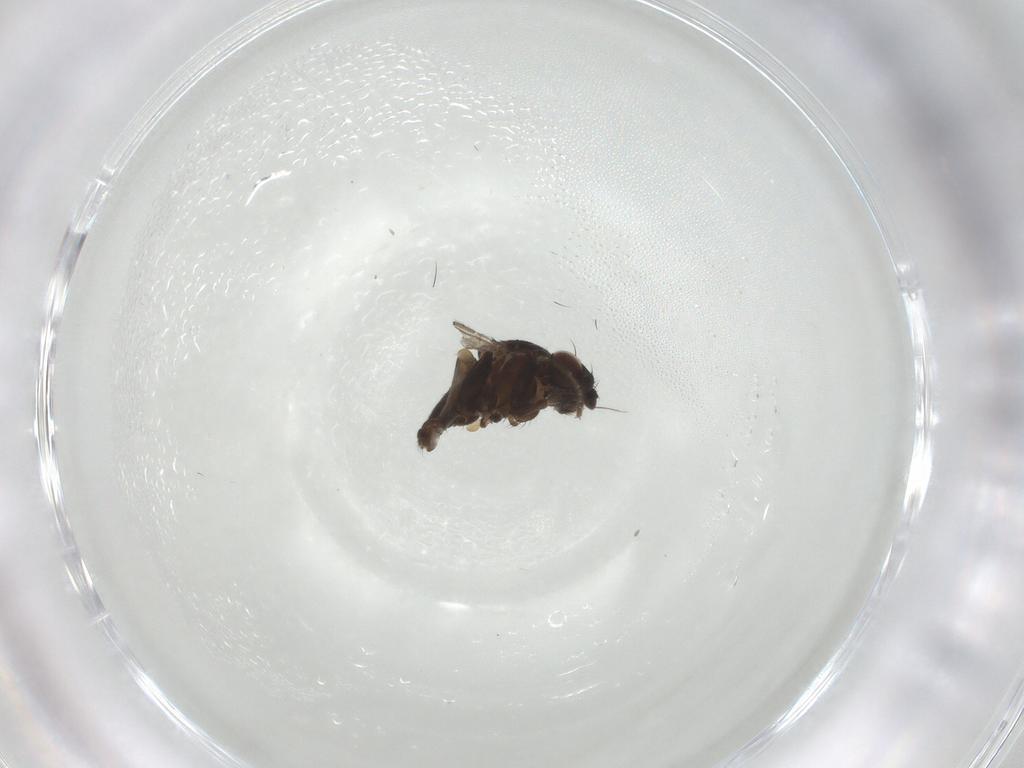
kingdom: Animalia
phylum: Arthropoda
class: Insecta
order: Diptera
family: Milichiidae
